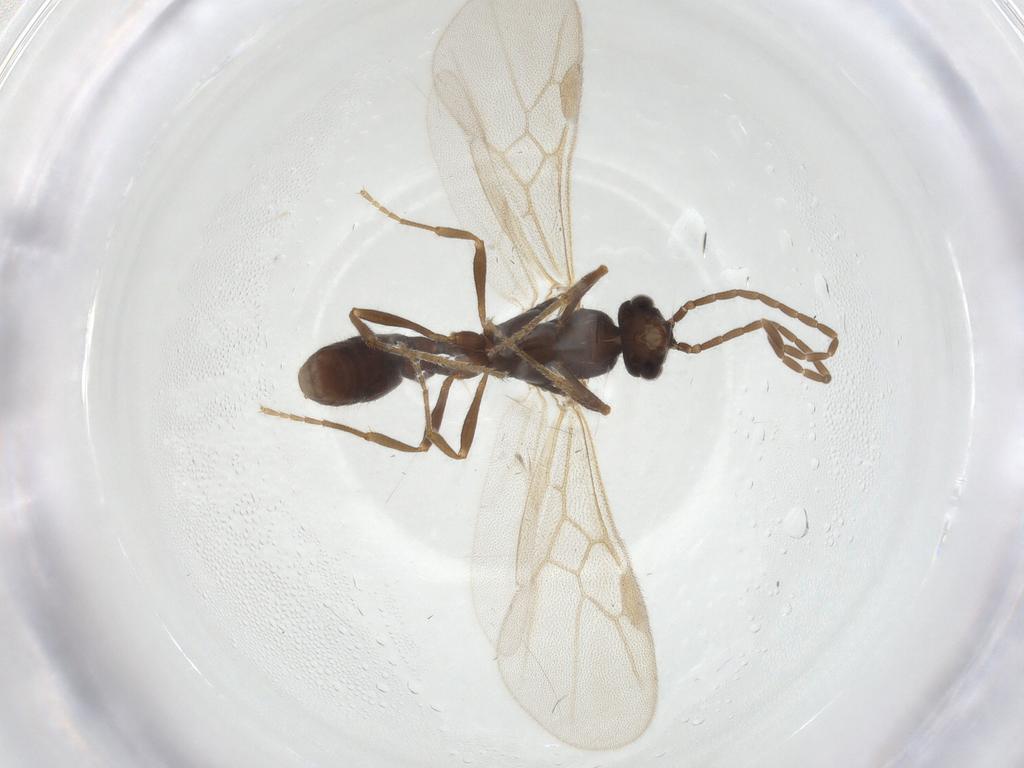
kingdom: Animalia
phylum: Arthropoda
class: Insecta
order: Hymenoptera
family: Formicidae
